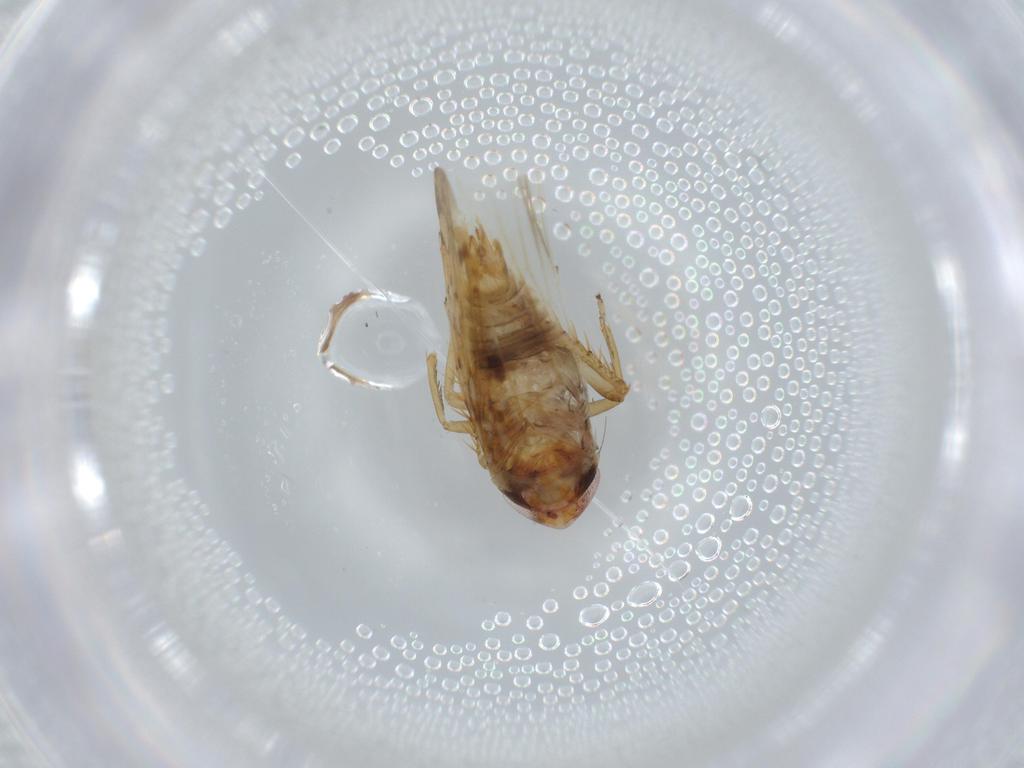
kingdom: Animalia
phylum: Arthropoda
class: Insecta
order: Hemiptera
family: Cicadellidae
